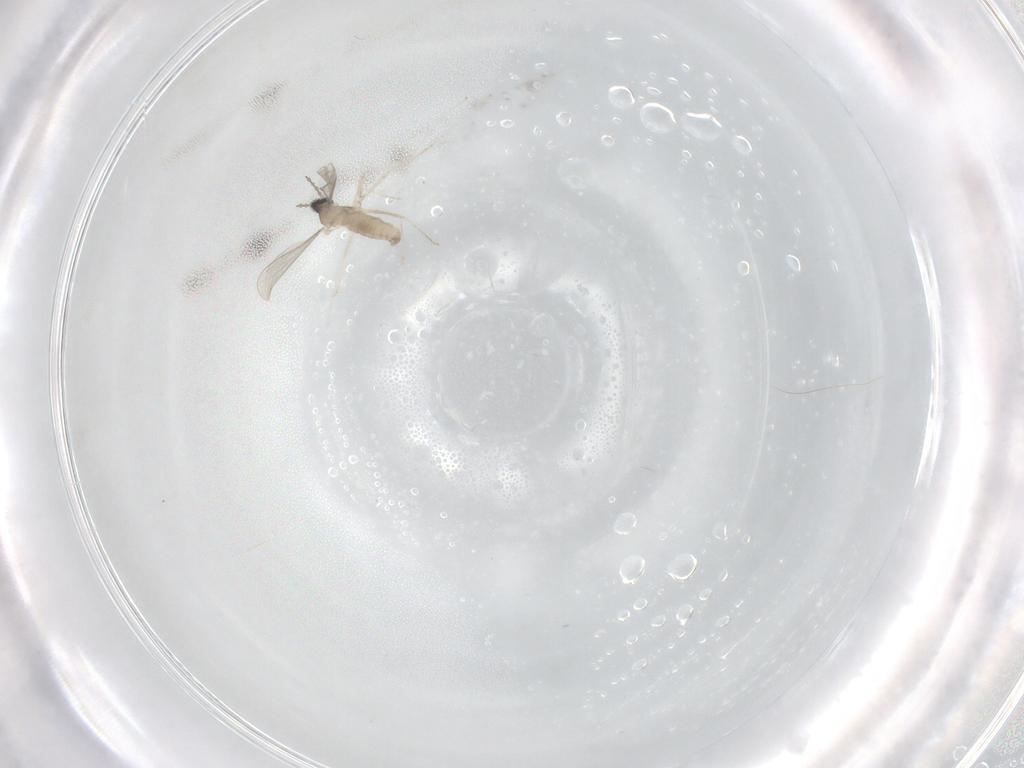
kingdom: Animalia
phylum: Arthropoda
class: Insecta
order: Diptera
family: Cecidomyiidae
